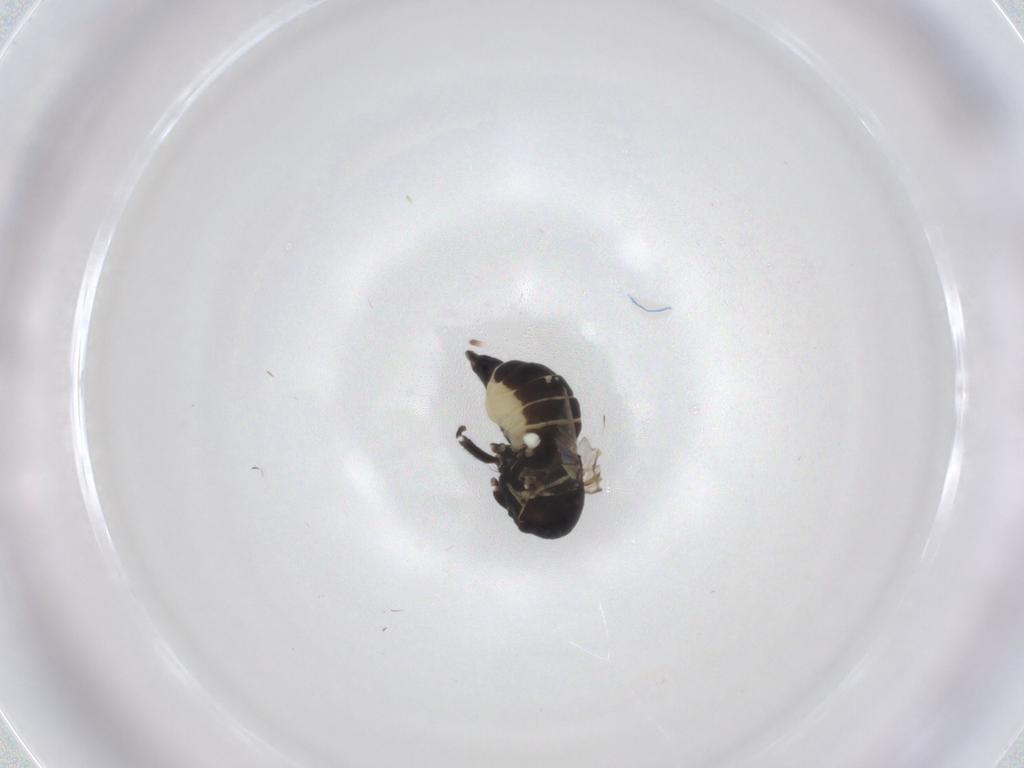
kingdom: Animalia
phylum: Arthropoda
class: Insecta
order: Diptera
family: Agromyzidae
